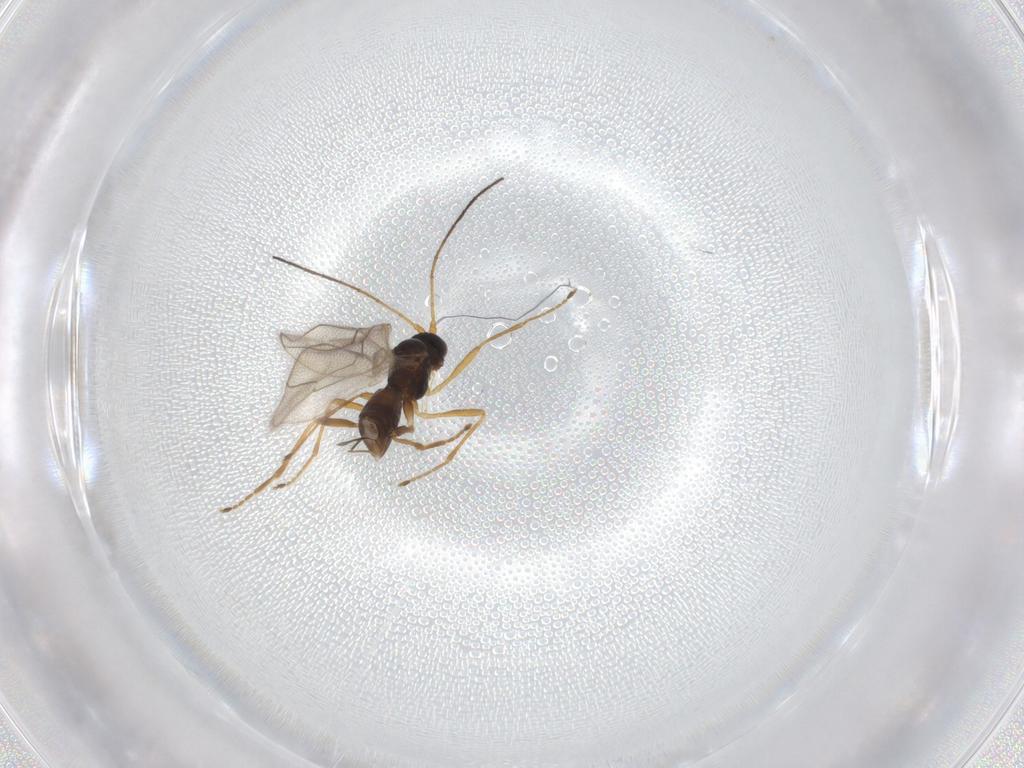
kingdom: Animalia
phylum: Arthropoda
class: Insecta
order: Hymenoptera
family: Braconidae
